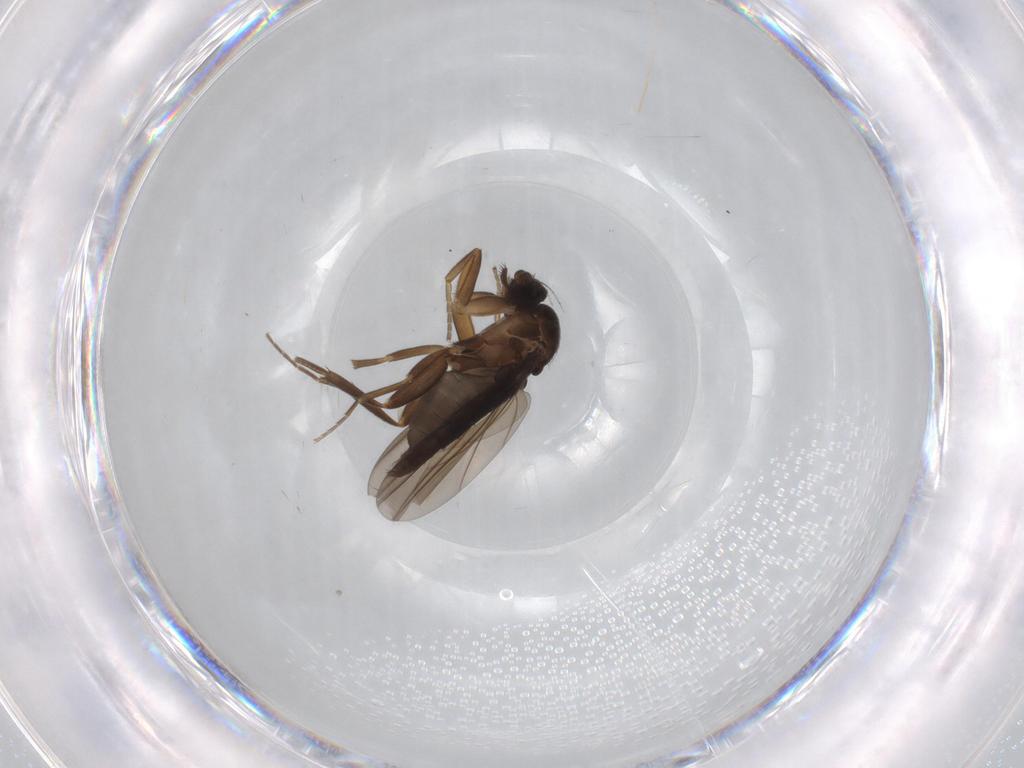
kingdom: Animalia
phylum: Arthropoda
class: Insecta
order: Diptera
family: Phoridae
